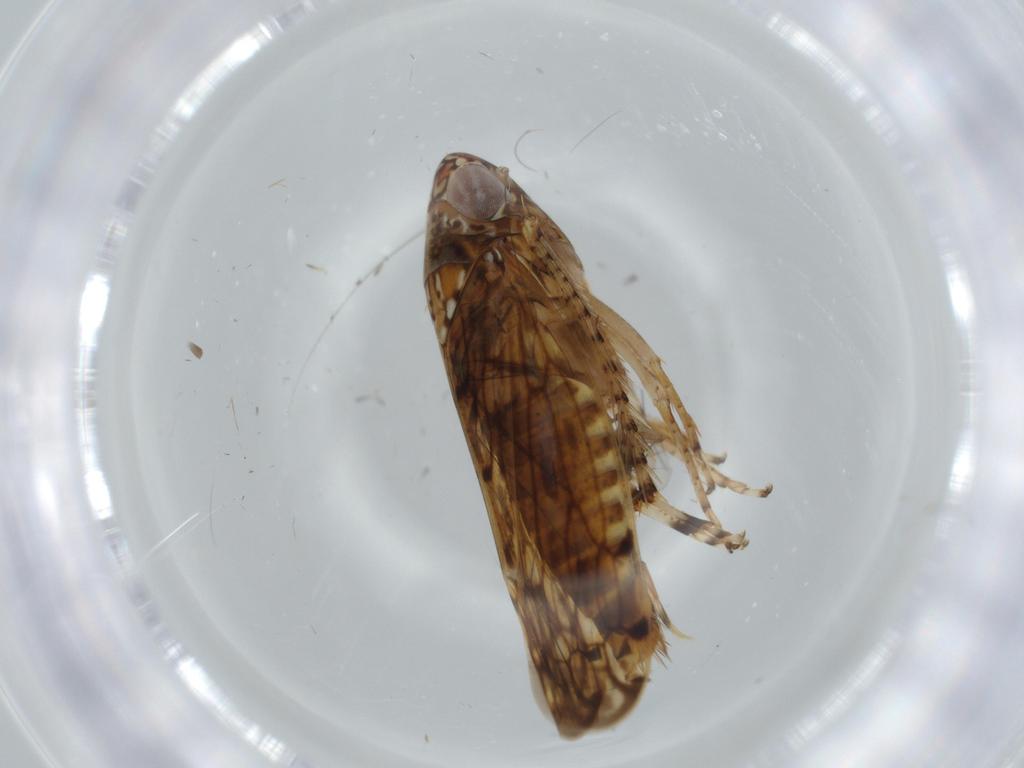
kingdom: Animalia
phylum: Arthropoda
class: Insecta
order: Hemiptera
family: Cicadellidae
